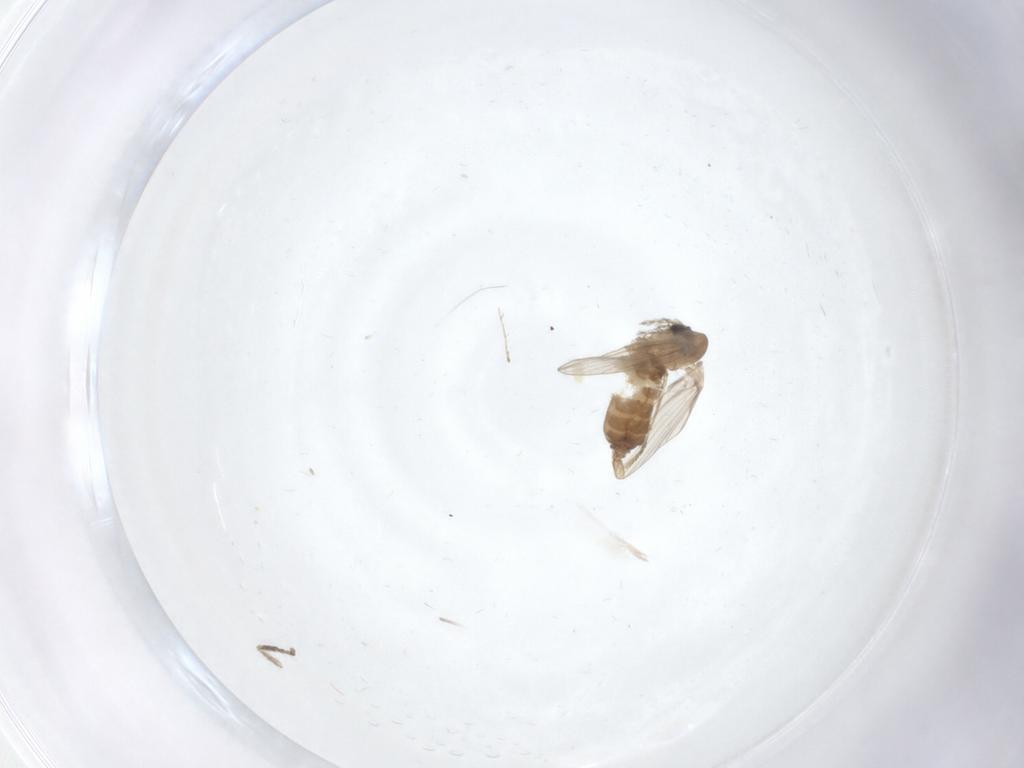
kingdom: Animalia
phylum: Arthropoda
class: Insecta
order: Diptera
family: Cecidomyiidae
